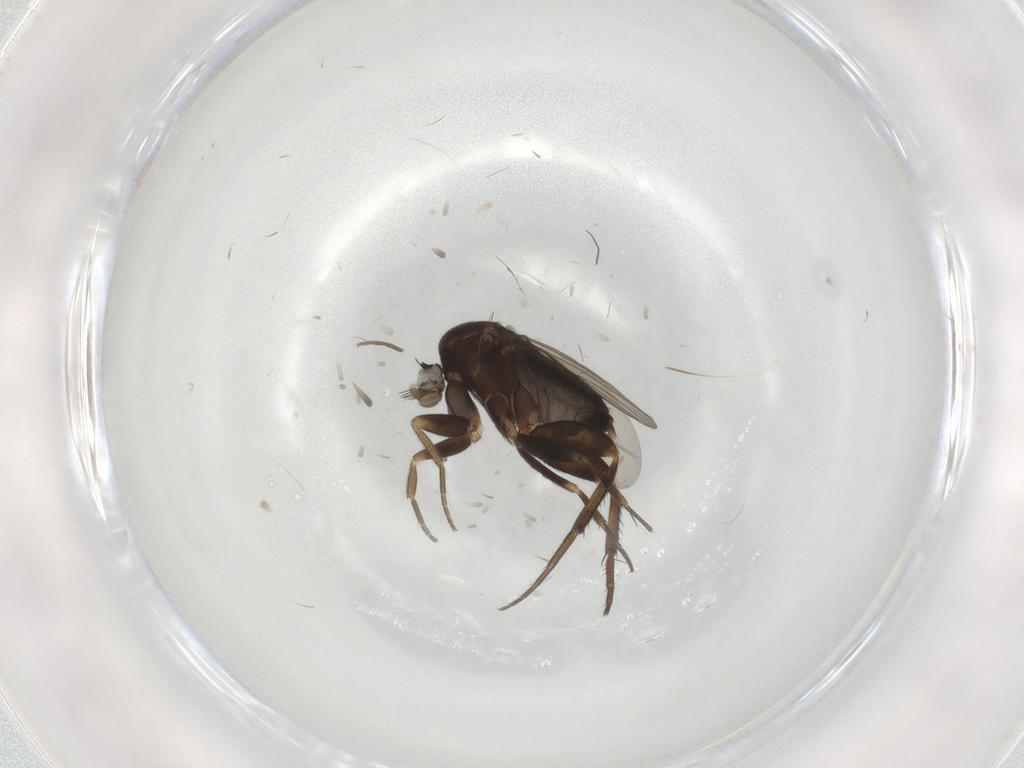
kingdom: Animalia
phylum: Arthropoda
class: Insecta
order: Diptera
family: Phoridae
